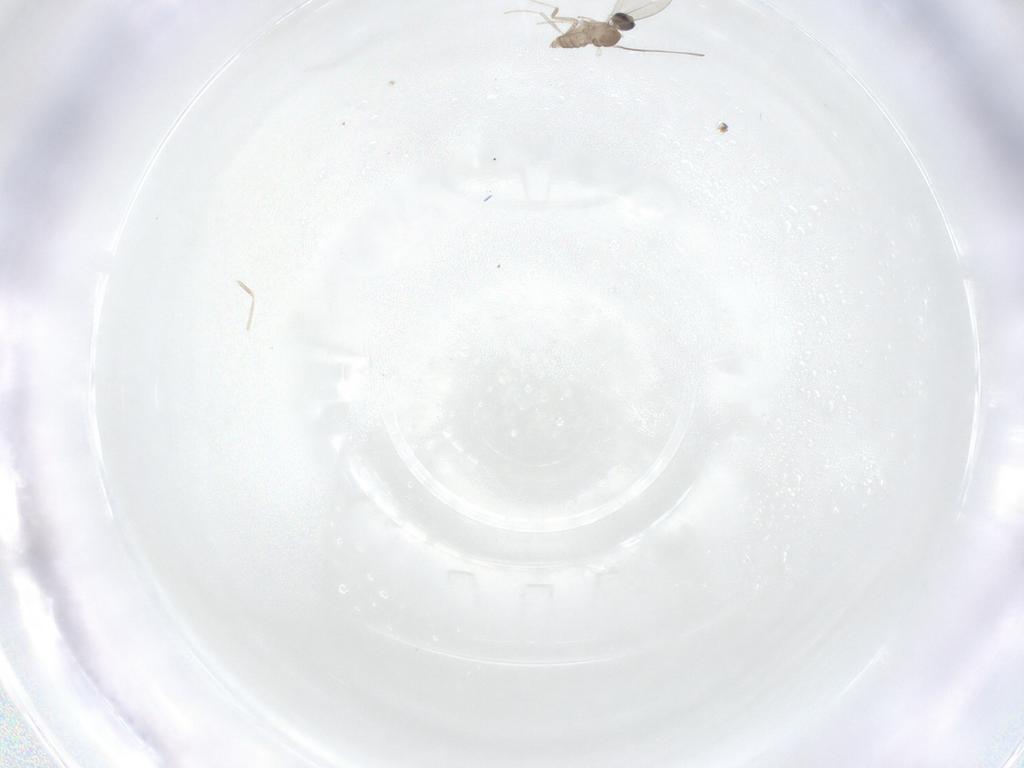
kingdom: Animalia
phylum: Arthropoda
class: Insecta
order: Diptera
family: Cecidomyiidae
